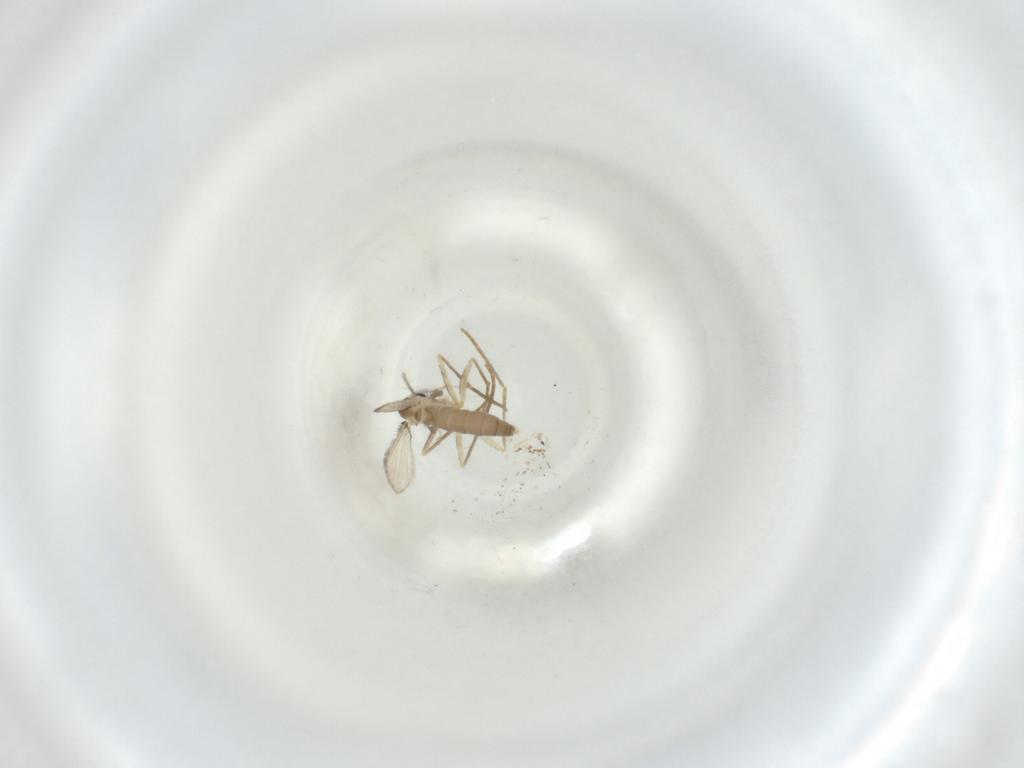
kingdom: Animalia
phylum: Arthropoda
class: Insecta
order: Diptera
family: Psychodidae
